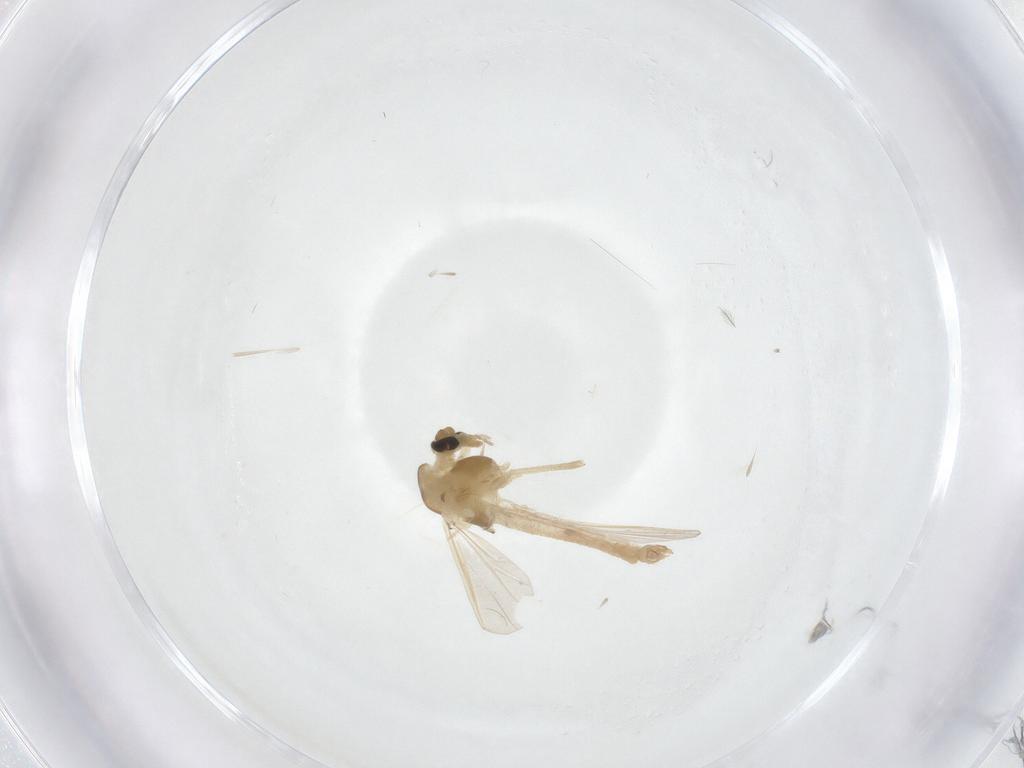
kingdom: Animalia
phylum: Arthropoda
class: Insecta
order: Diptera
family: Chironomidae
